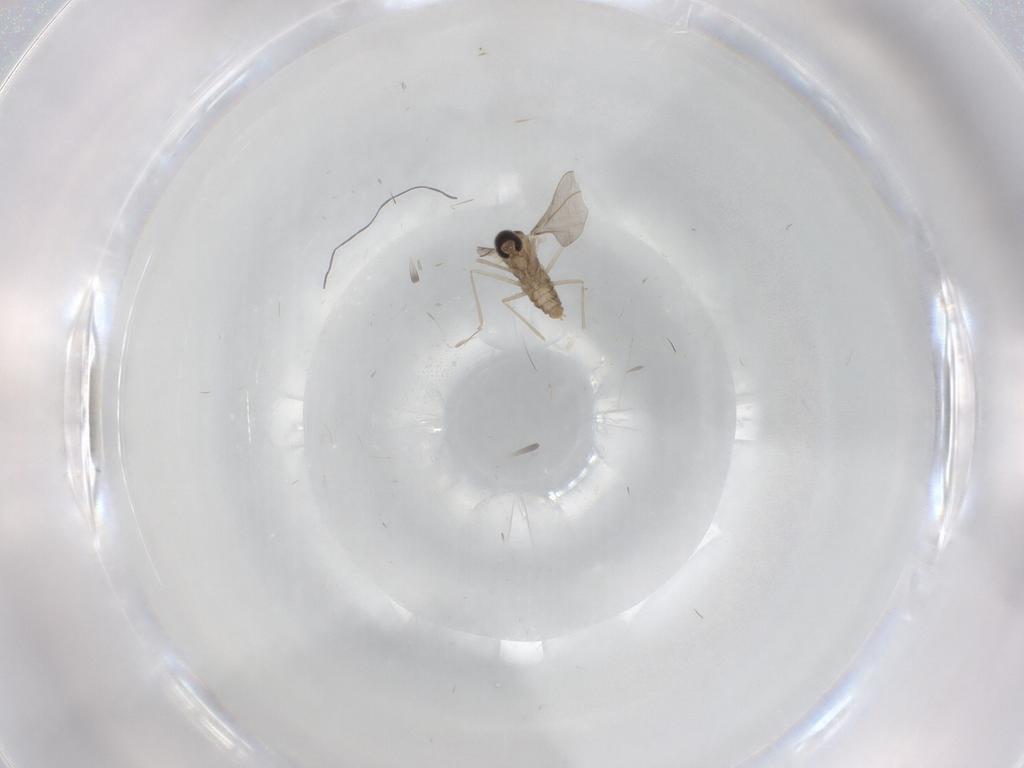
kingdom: Animalia
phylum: Arthropoda
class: Insecta
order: Diptera
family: Cecidomyiidae
